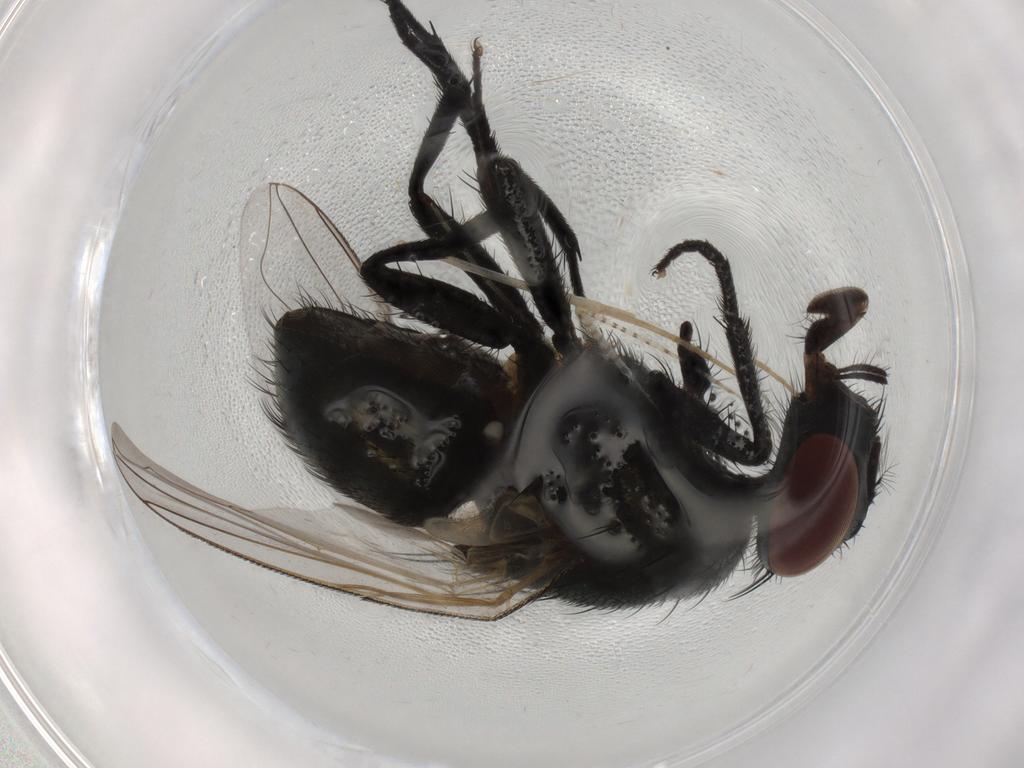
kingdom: Animalia
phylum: Arthropoda
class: Insecta
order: Diptera
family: Chaoboridae
